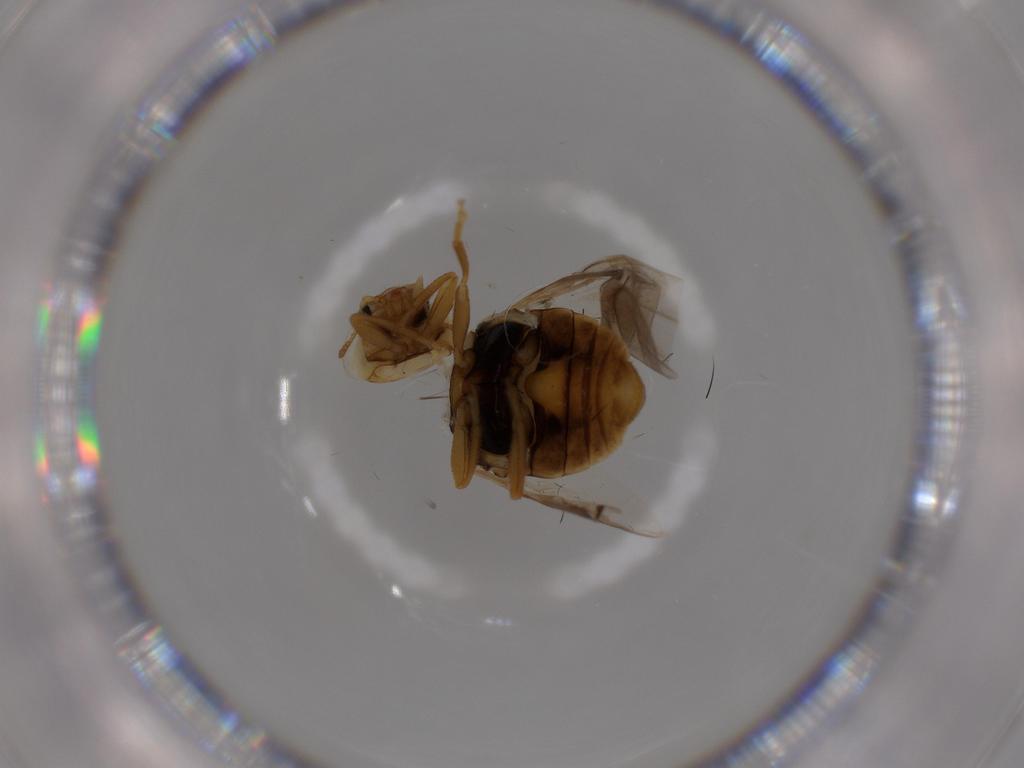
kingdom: Animalia
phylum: Arthropoda
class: Insecta
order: Coleoptera
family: Coccinellidae
